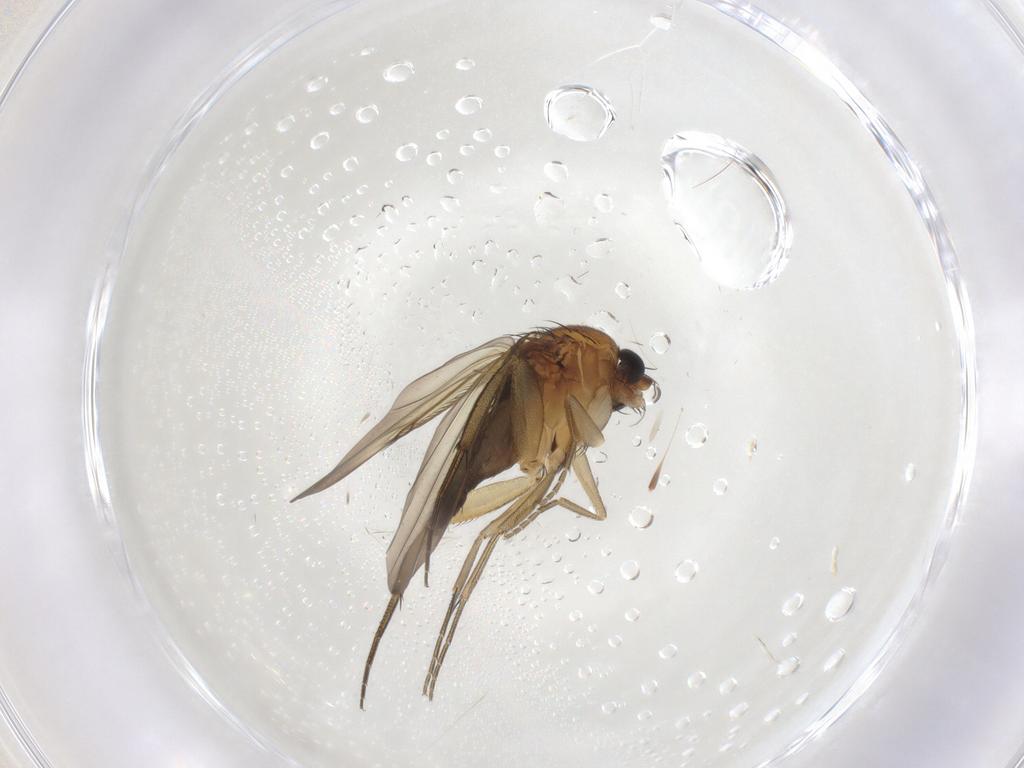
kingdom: Animalia
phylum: Arthropoda
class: Insecta
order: Diptera
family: Phoridae
